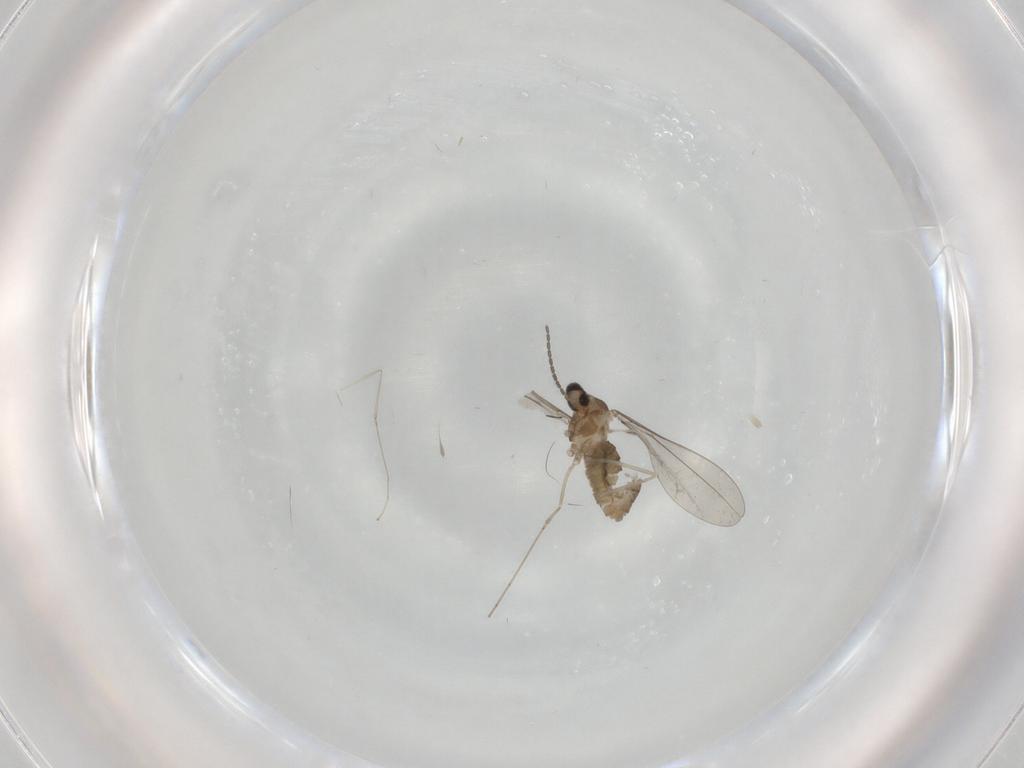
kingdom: Animalia
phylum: Arthropoda
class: Insecta
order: Diptera
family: Cecidomyiidae
